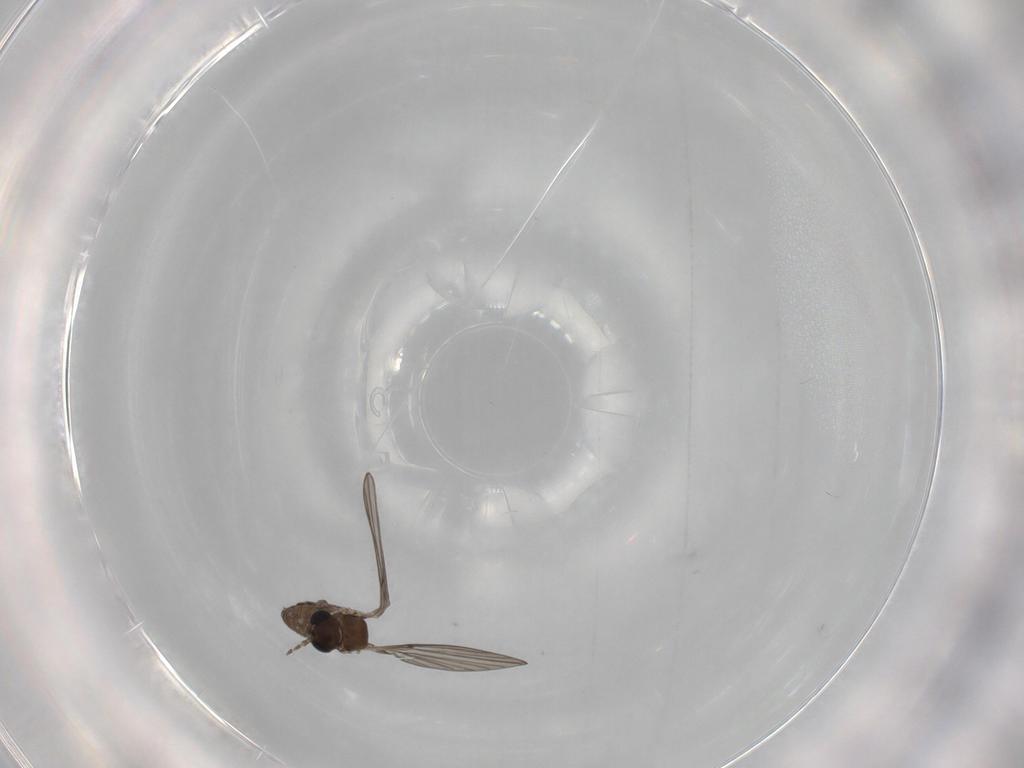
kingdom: Animalia
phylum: Arthropoda
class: Insecta
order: Diptera
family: Psychodidae
